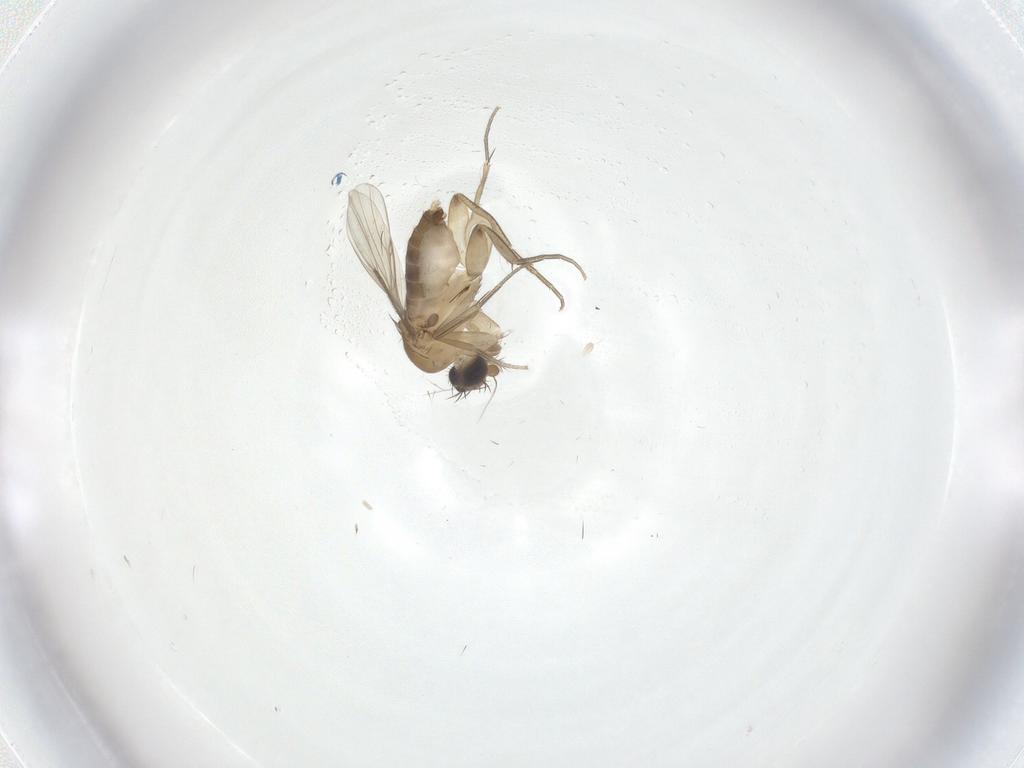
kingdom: Animalia
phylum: Arthropoda
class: Insecta
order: Diptera
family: Phoridae
